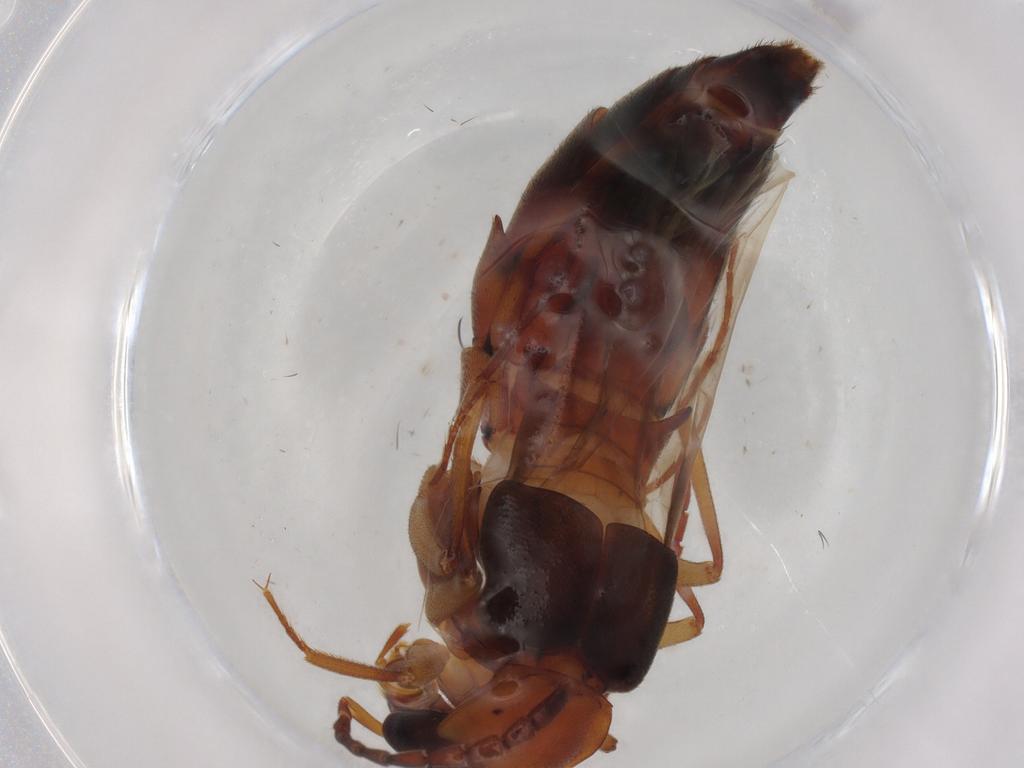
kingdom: Animalia
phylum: Arthropoda
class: Insecta
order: Coleoptera
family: Staphylinidae
